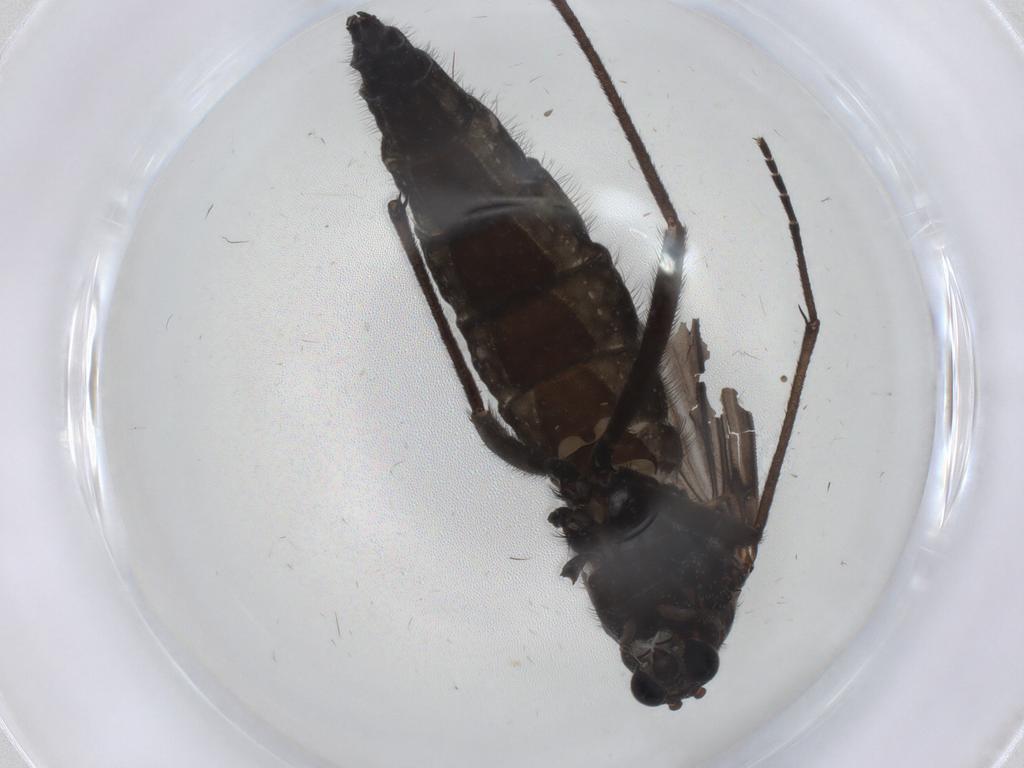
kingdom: Animalia
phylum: Arthropoda
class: Insecta
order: Diptera
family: Sciaridae
